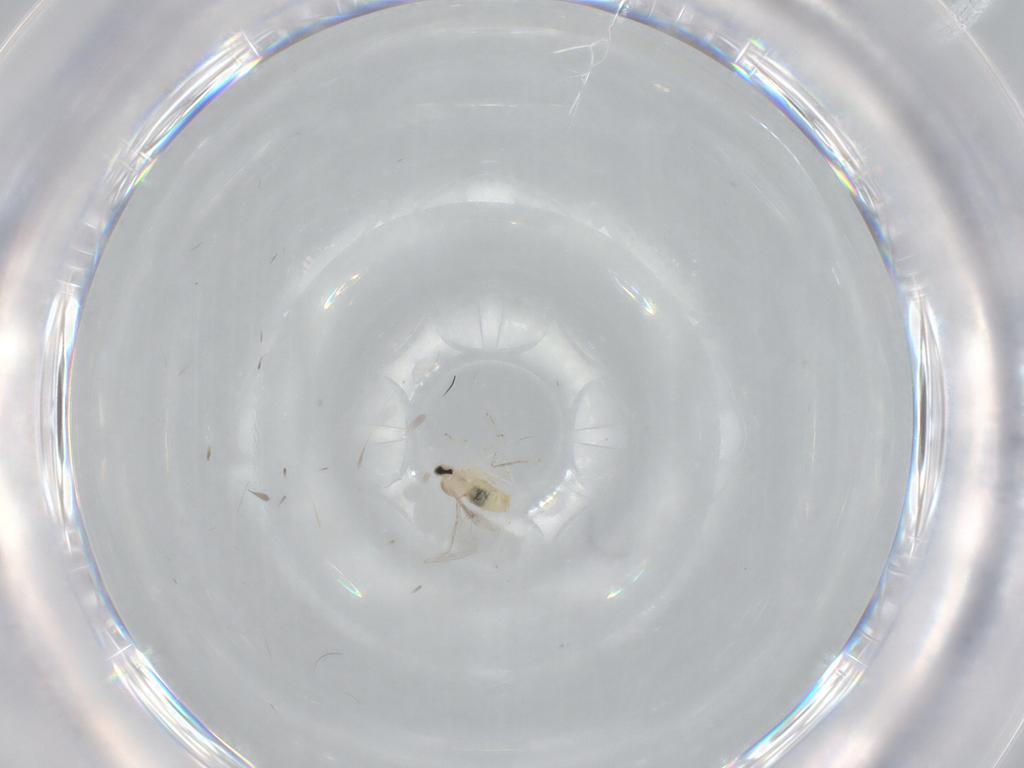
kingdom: Animalia
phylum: Arthropoda
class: Insecta
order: Diptera
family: Cecidomyiidae
